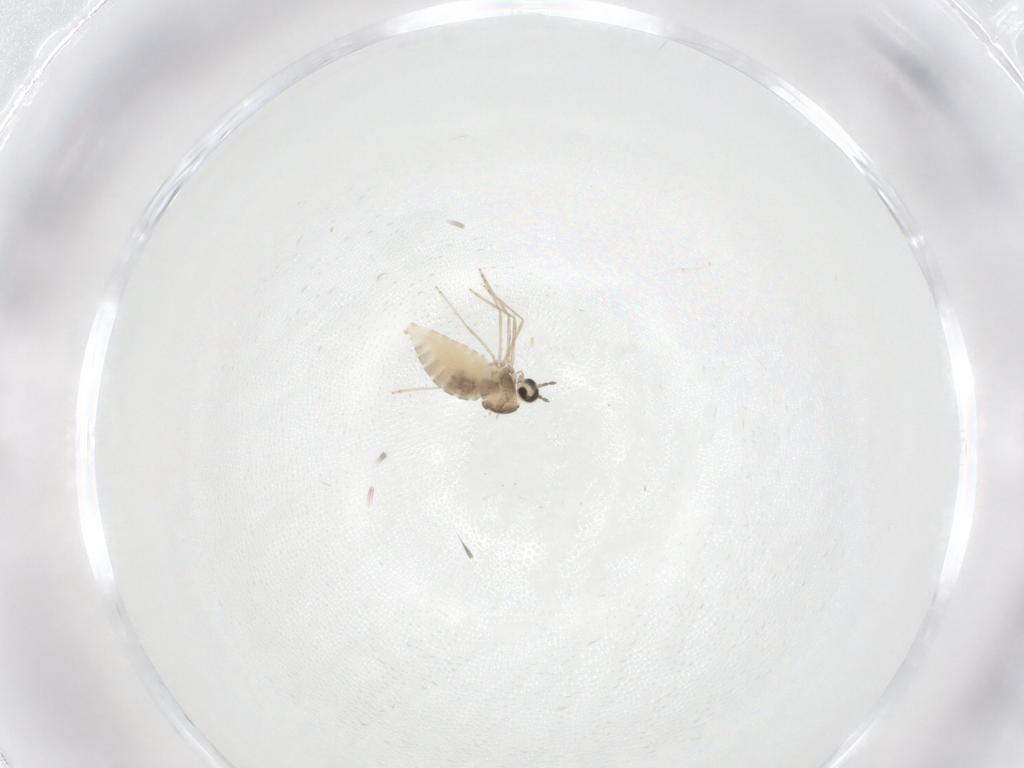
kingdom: Animalia
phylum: Arthropoda
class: Insecta
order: Diptera
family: Cecidomyiidae
